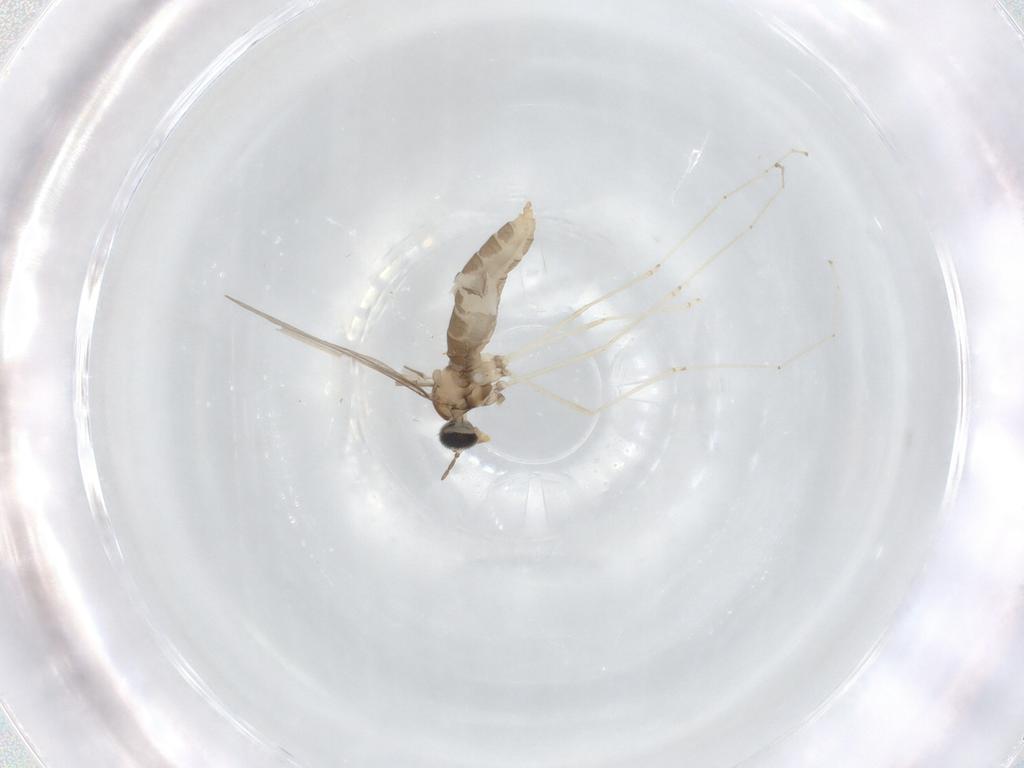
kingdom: Animalia
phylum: Arthropoda
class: Insecta
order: Diptera
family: Cecidomyiidae
